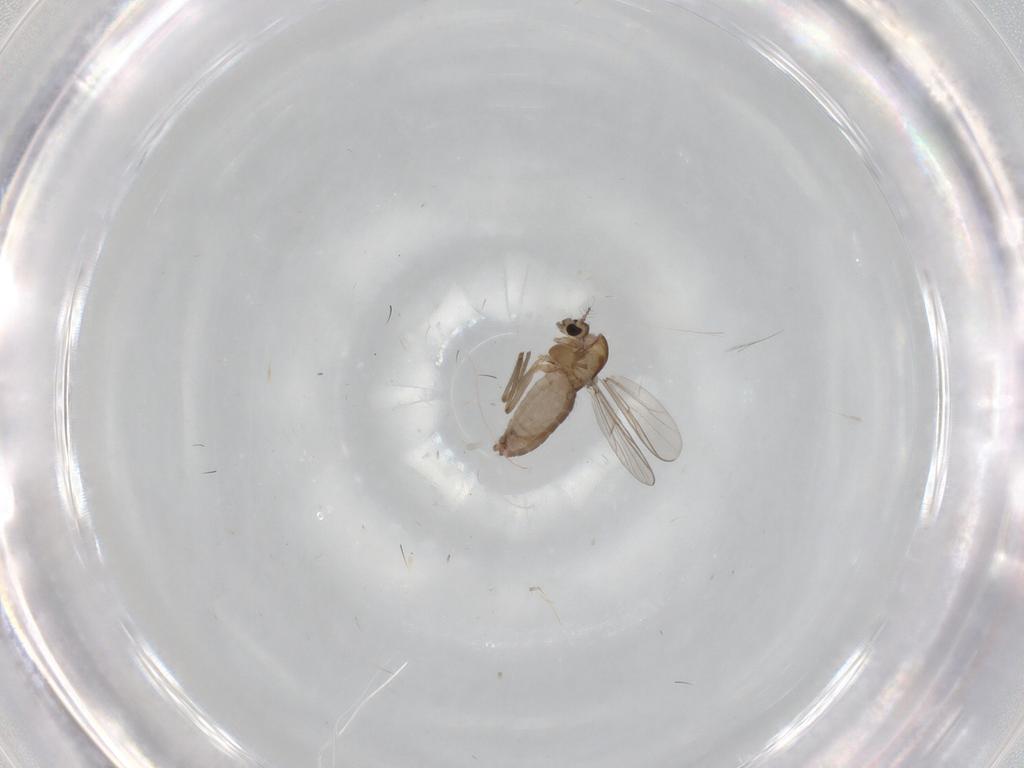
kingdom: Animalia
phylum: Arthropoda
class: Insecta
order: Diptera
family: Chironomidae
